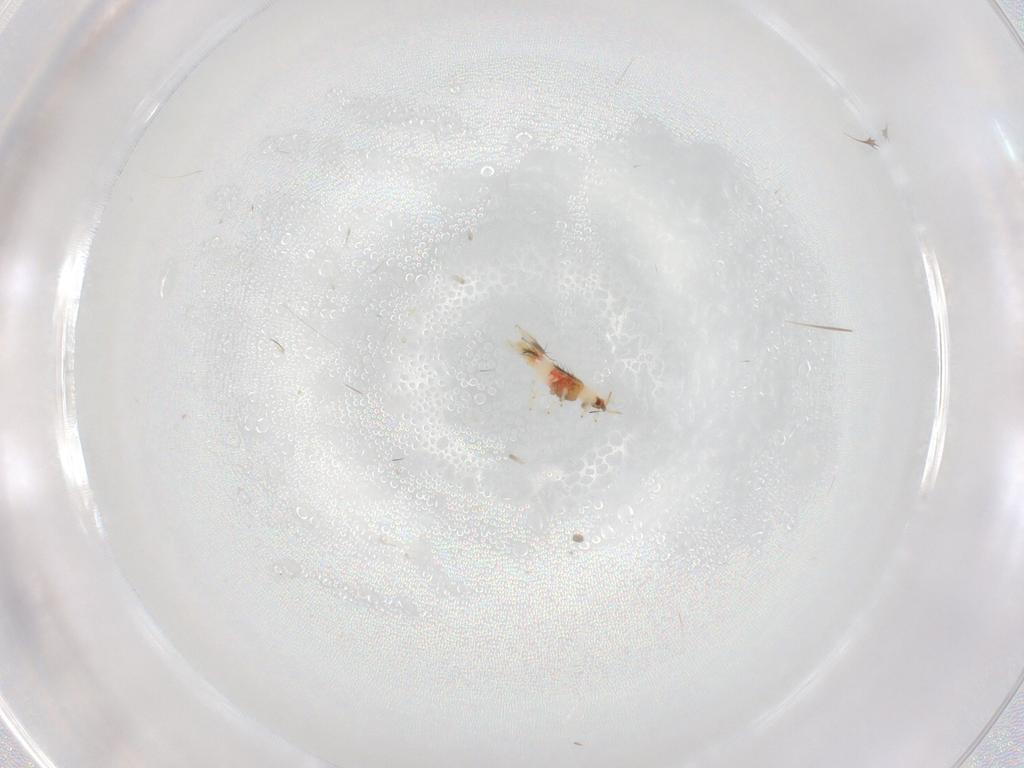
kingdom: Animalia
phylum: Arthropoda
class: Insecta
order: Thysanoptera
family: Thripidae
